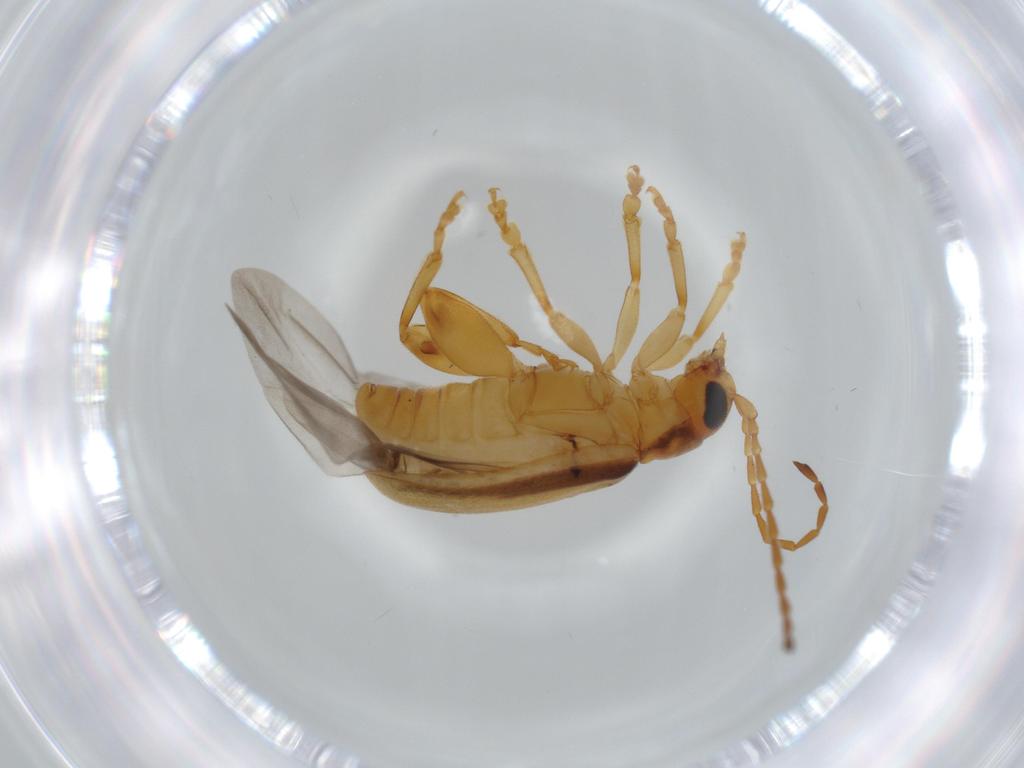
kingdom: Animalia
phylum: Arthropoda
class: Insecta
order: Coleoptera
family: Chrysomelidae
